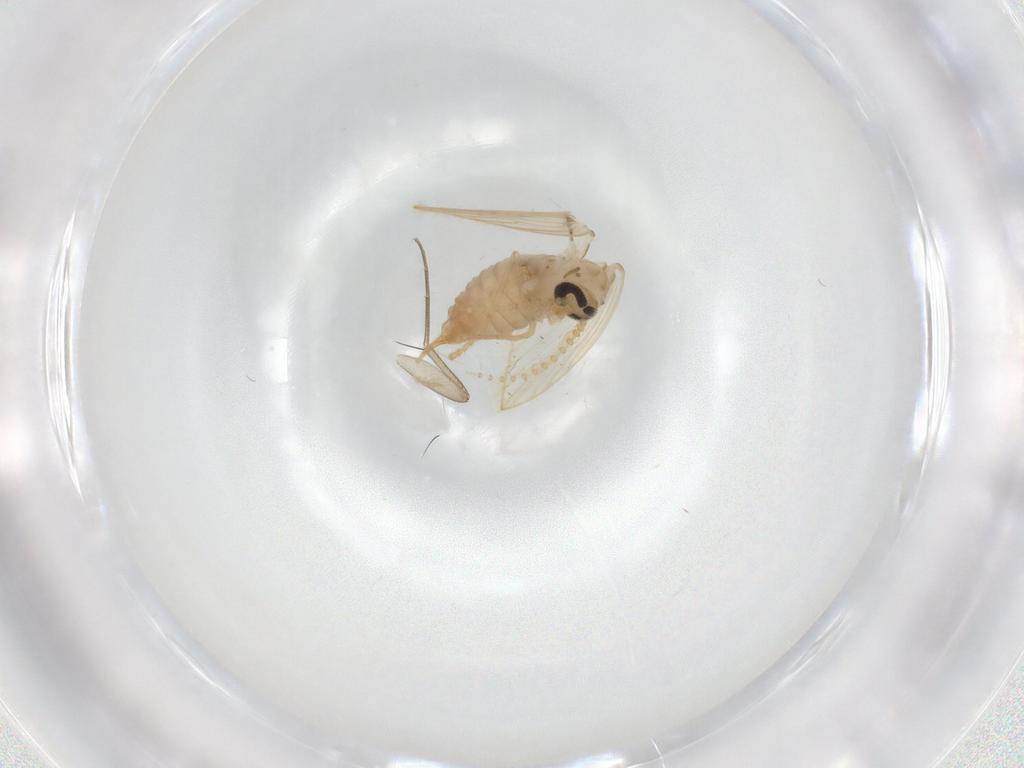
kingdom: Animalia
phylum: Arthropoda
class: Insecta
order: Diptera
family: Psychodidae
